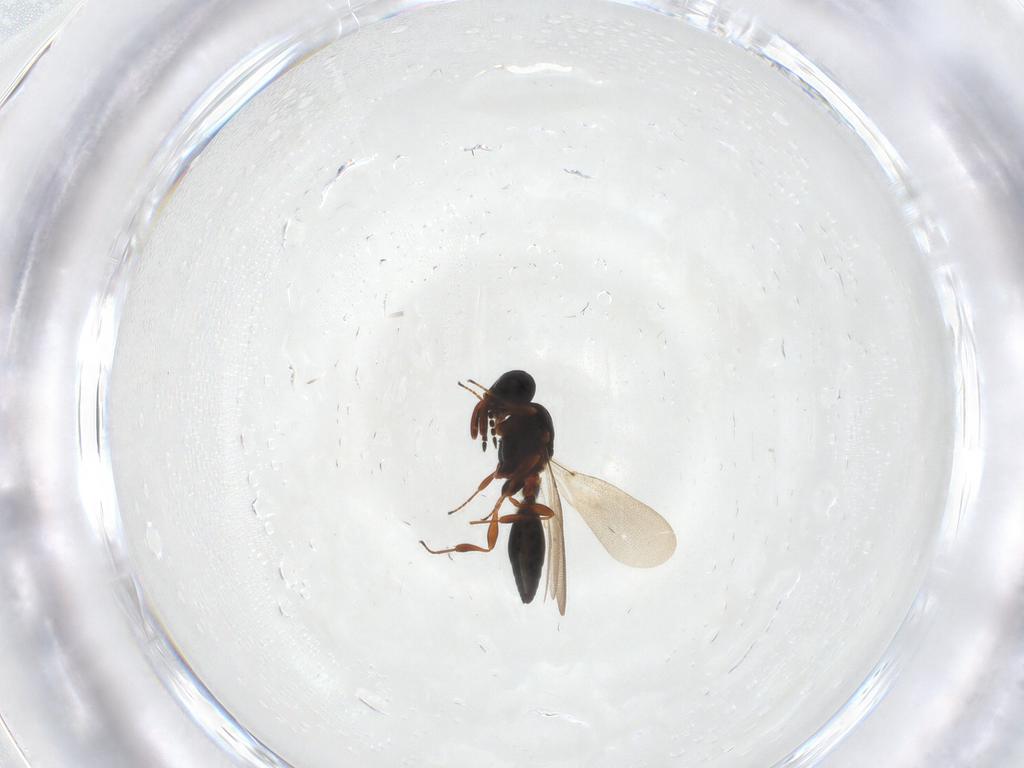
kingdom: Animalia
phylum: Arthropoda
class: Insecta
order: Hymenoptera
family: Platygastridae
